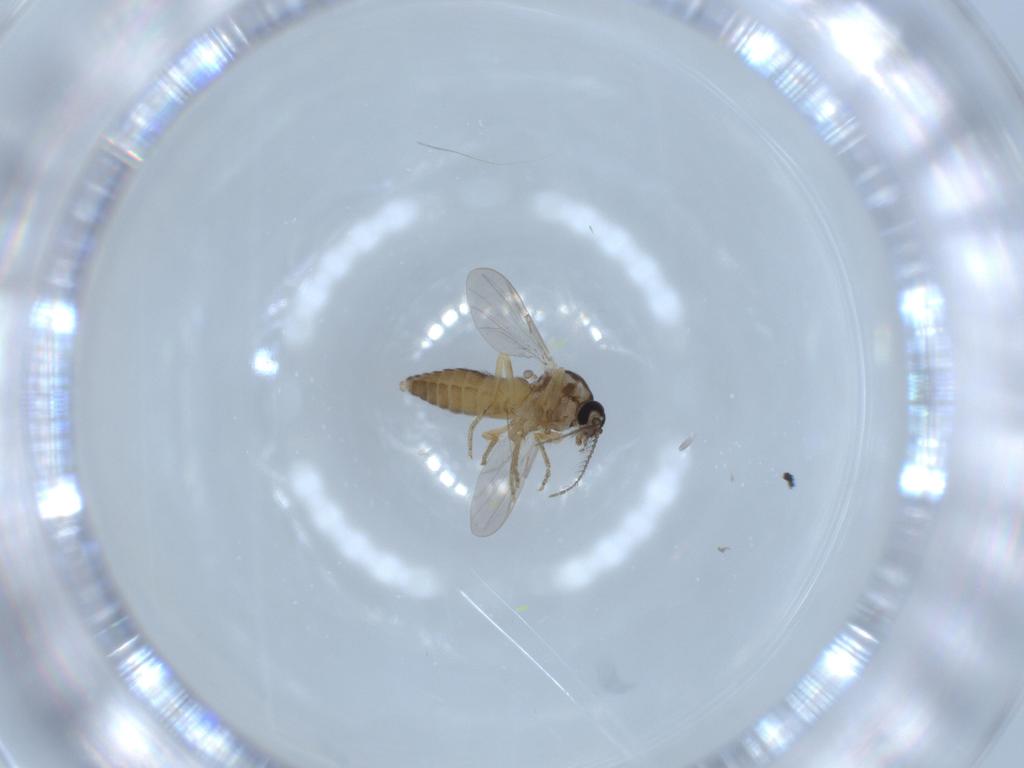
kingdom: Animalia
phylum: Arthropoda
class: Insecta
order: Diptera
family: Ceratopogonidae
